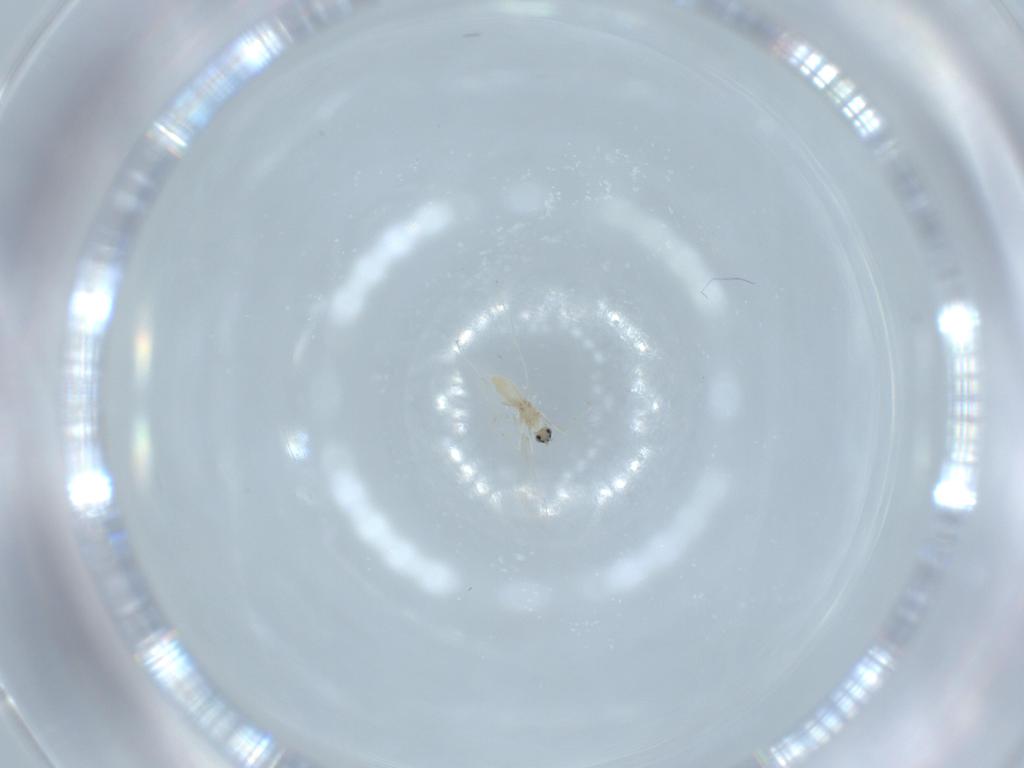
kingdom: Animalia
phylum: Arthropoda
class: Insecta
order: Diptera
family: Cecidomyiidae
